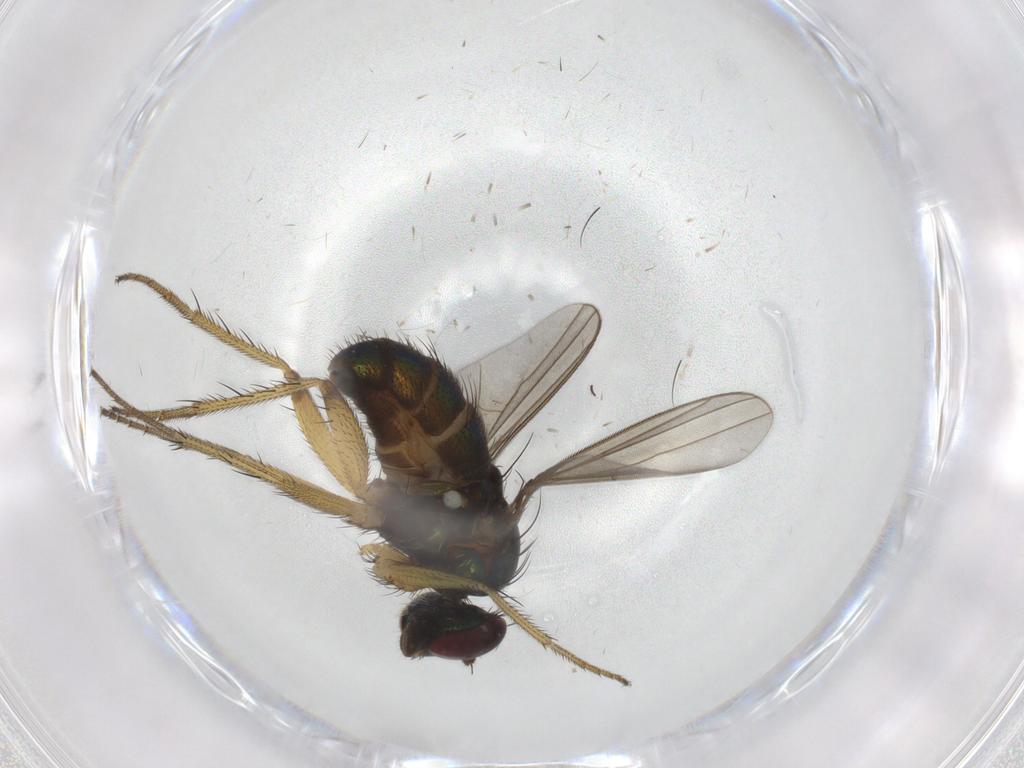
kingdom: Animalia
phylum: Arthropoda
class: Insecta
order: Diptera
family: Dolichopodidae
